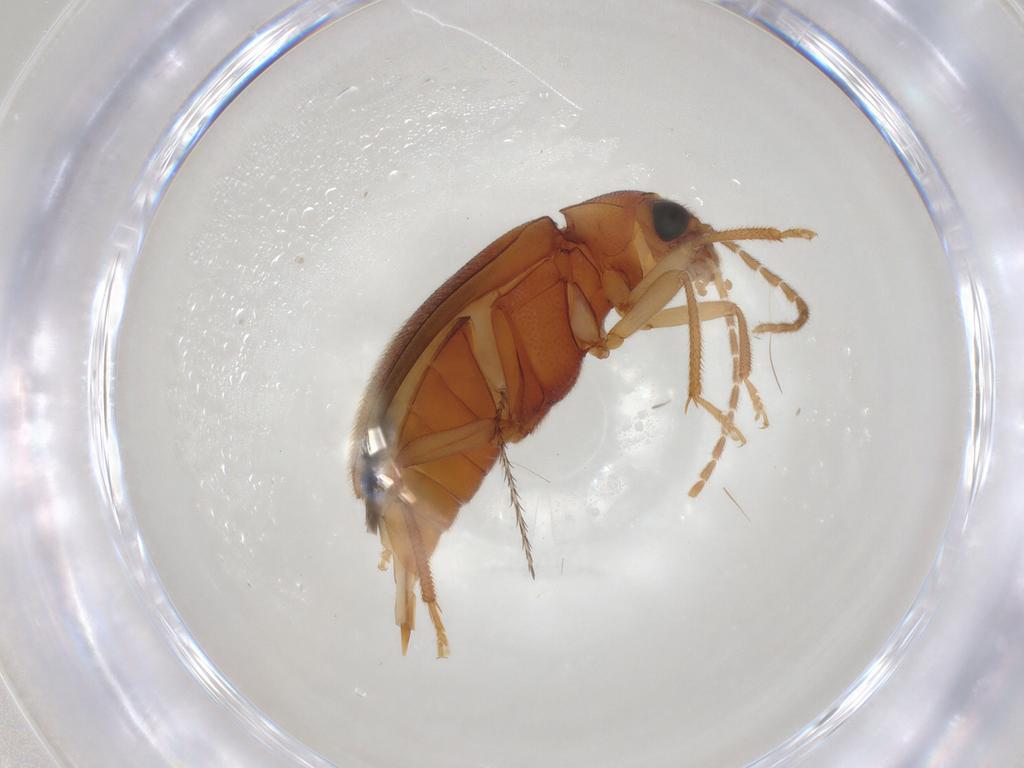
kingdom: Animalia
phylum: Arthropoda
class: Insecta
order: Coleoptera
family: Ptilodactylidae
